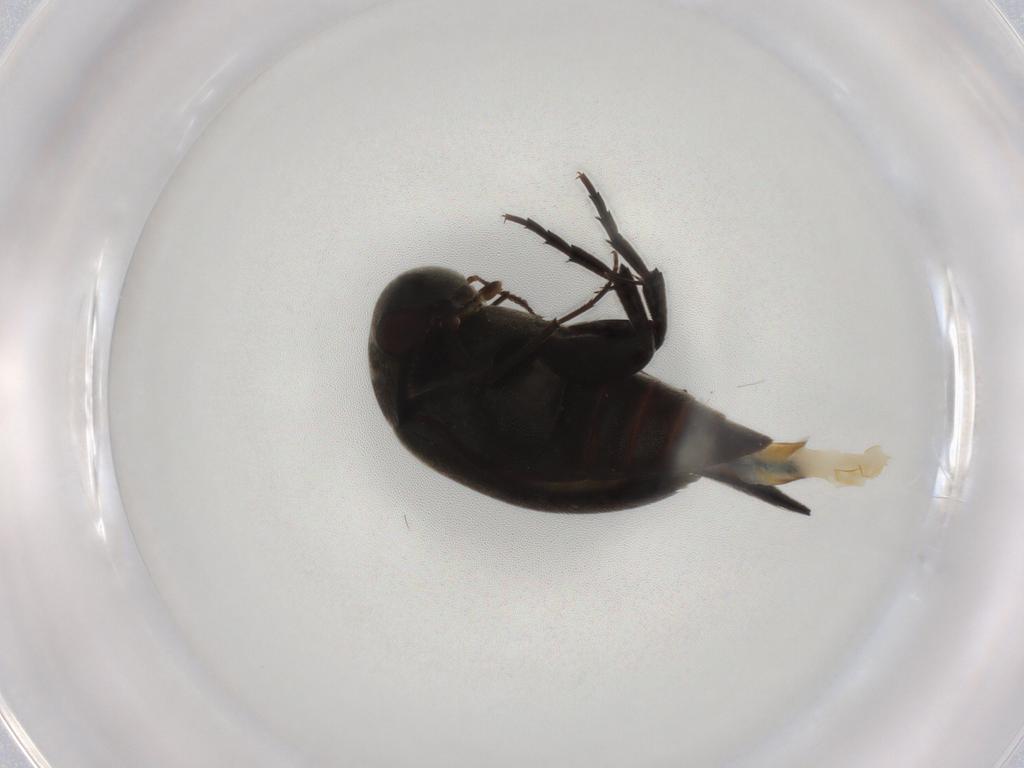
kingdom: Animalia
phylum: Arthropoda
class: Insecta
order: Coleoptera
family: Mordellidae
